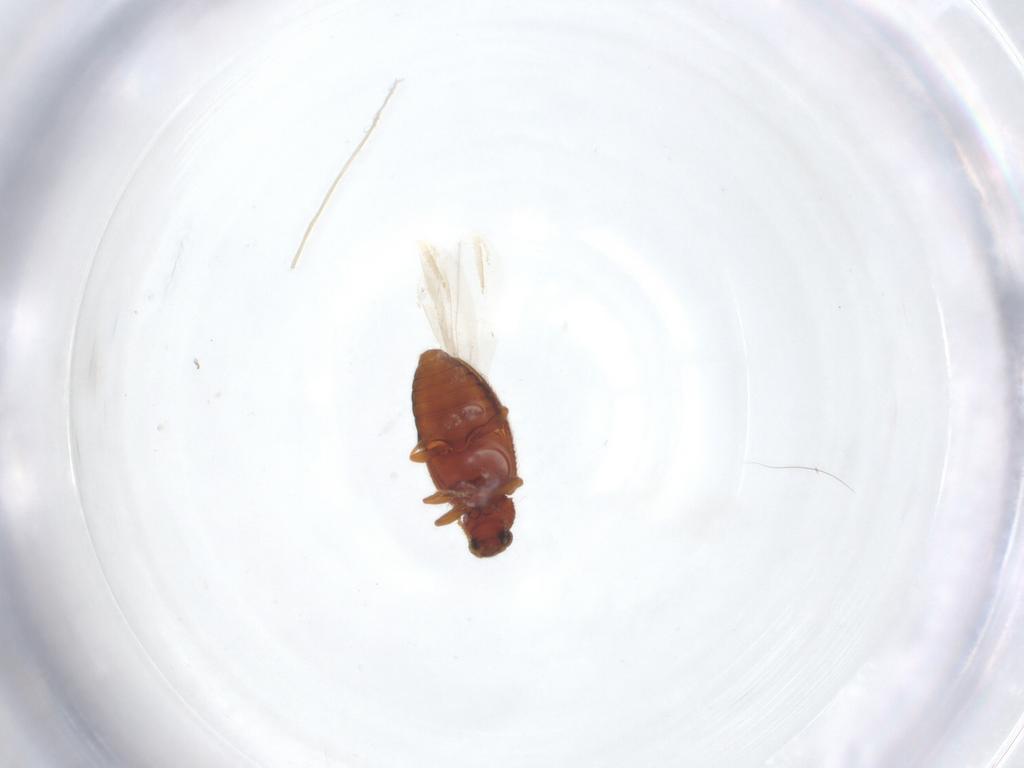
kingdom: Animalia
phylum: Arthropoda
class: Insecta
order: Coleoptera
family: Latridiidae
